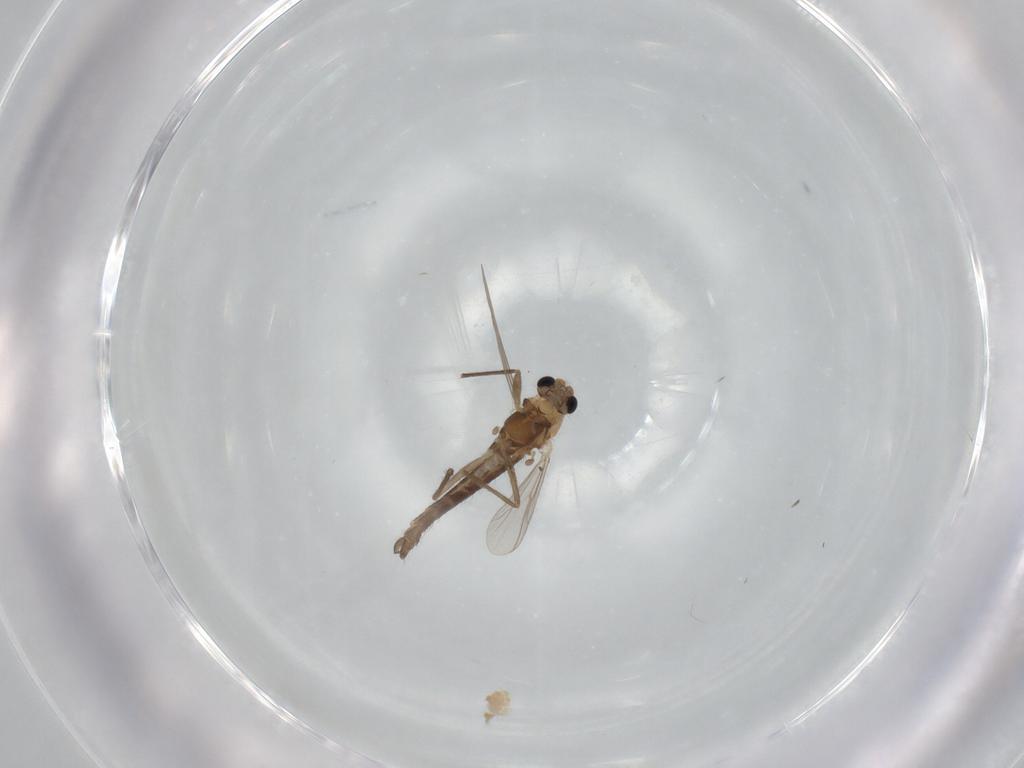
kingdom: Animalia
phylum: Arthropoda
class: Insecta
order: Diptera
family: Chironomidae
